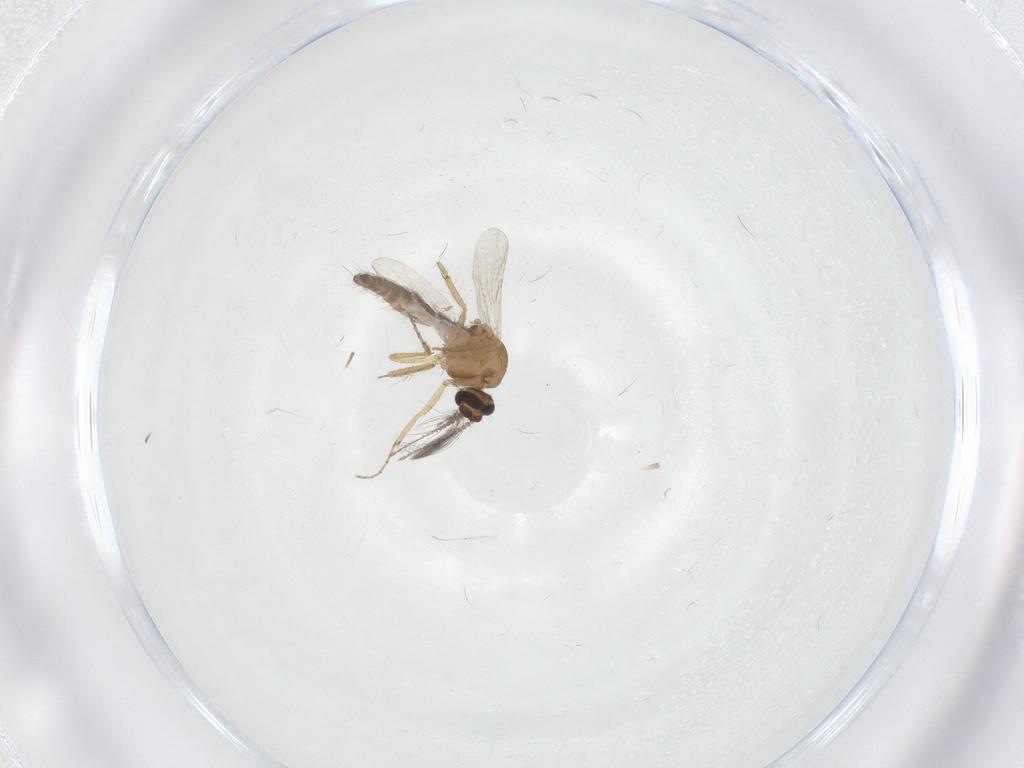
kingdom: Animalia
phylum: Arthropoda
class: Insecta
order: Diptera
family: Ceratopogonidae
